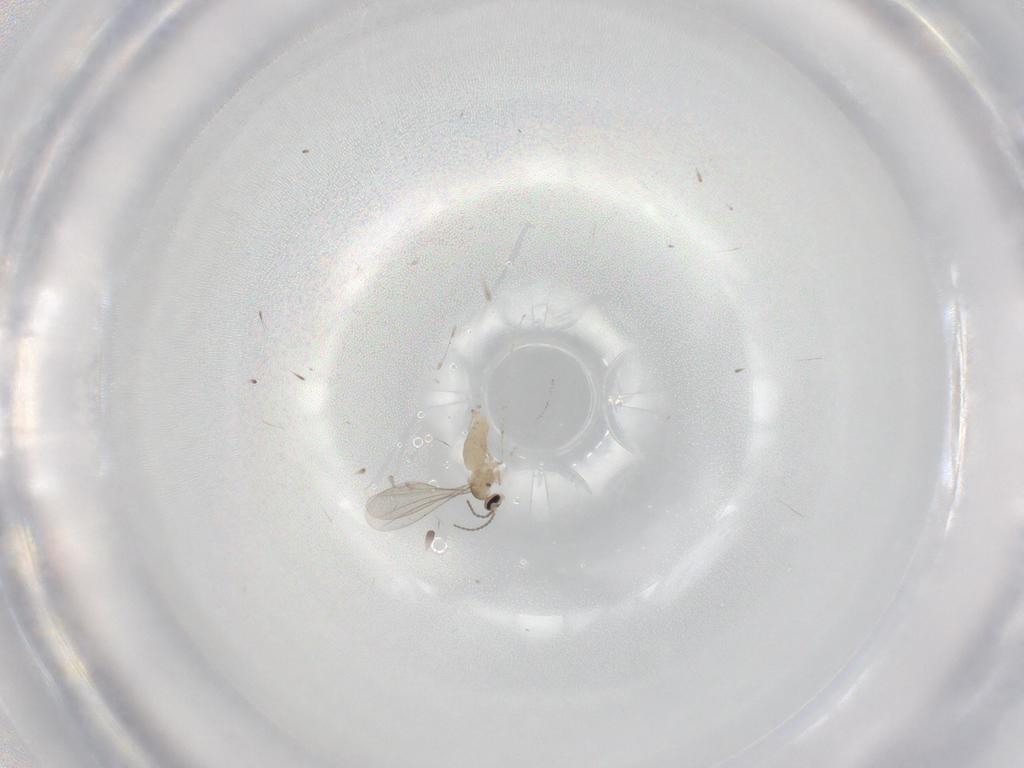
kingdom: Animalia
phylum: Arthropoda
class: Insecta
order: Diptera
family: Cecidomyiidae
